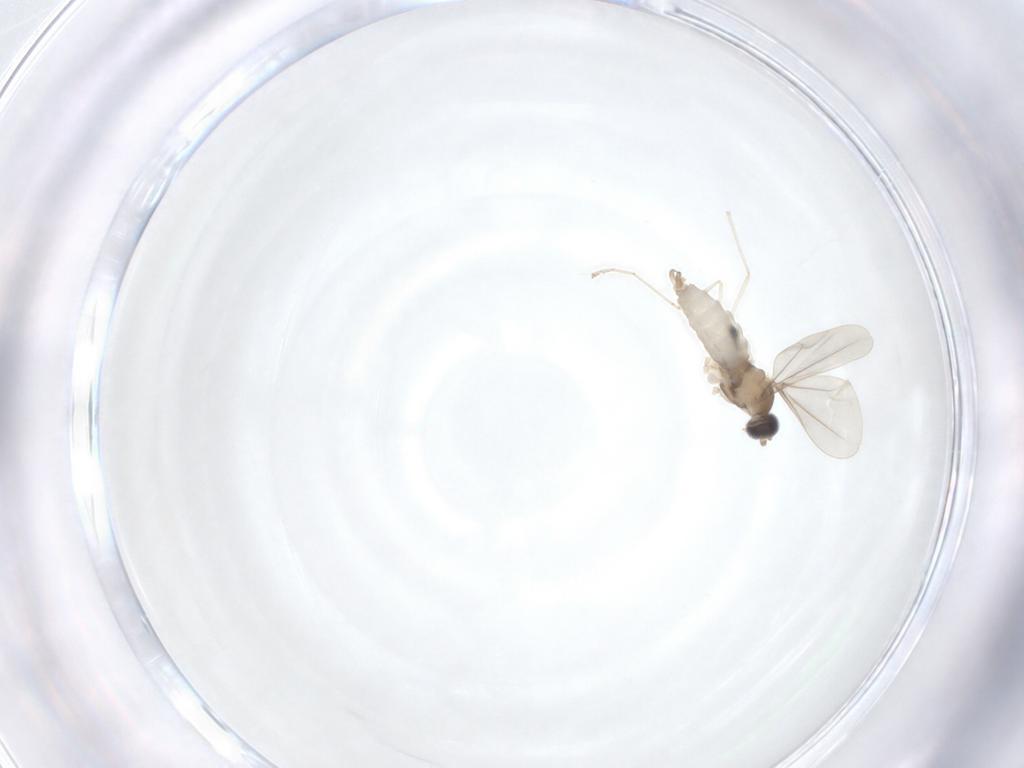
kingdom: Animalia
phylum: Arthropoda
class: Insecta
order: Diptera
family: Cecidomyiidae
